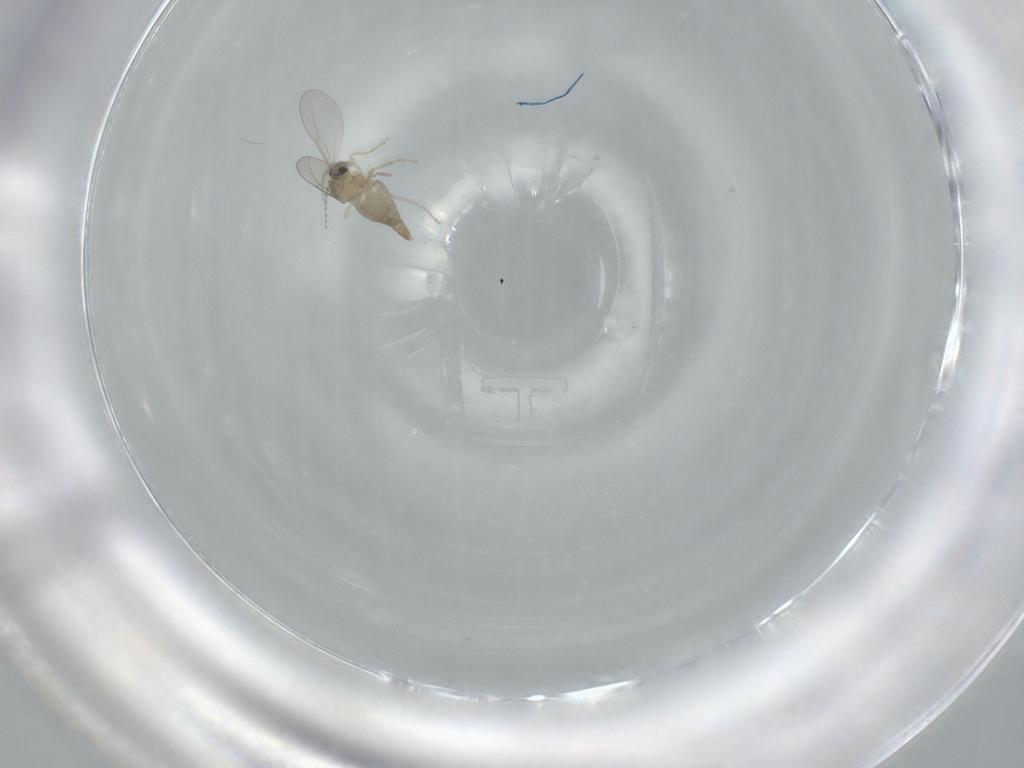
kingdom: Animalia
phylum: Arthropoda
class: Insecta
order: Diptera
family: Cecidomyiidae
